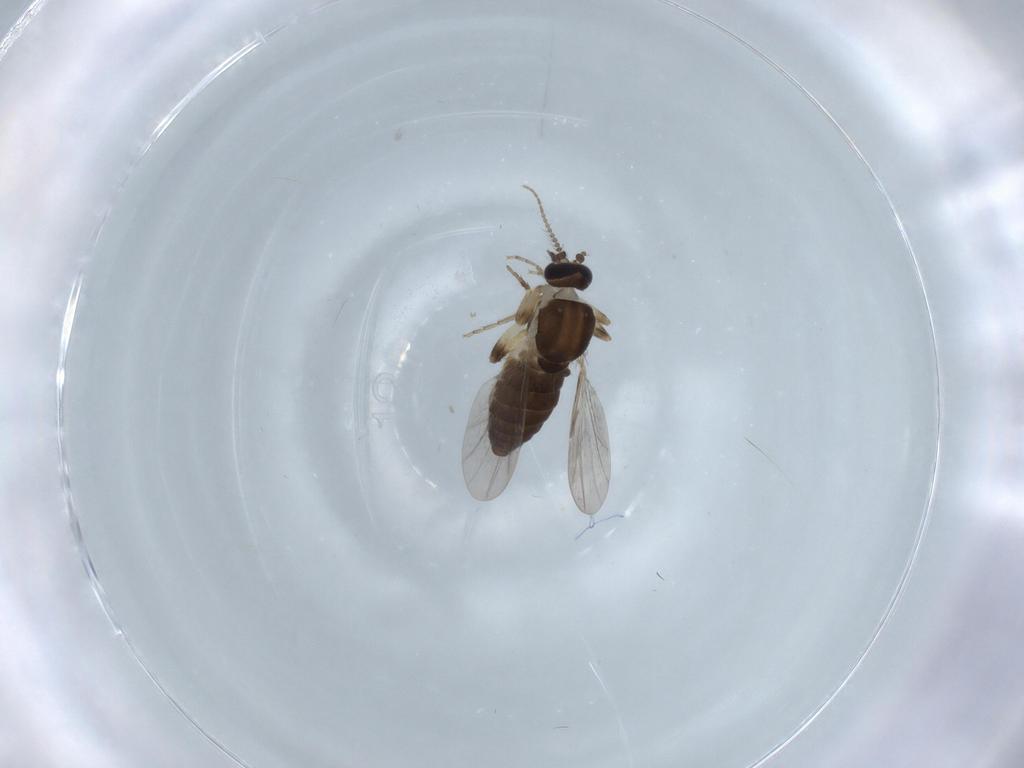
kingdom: Animalia
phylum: Arthropoda
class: Insecta
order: Diptera
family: Ceratopogonidae
